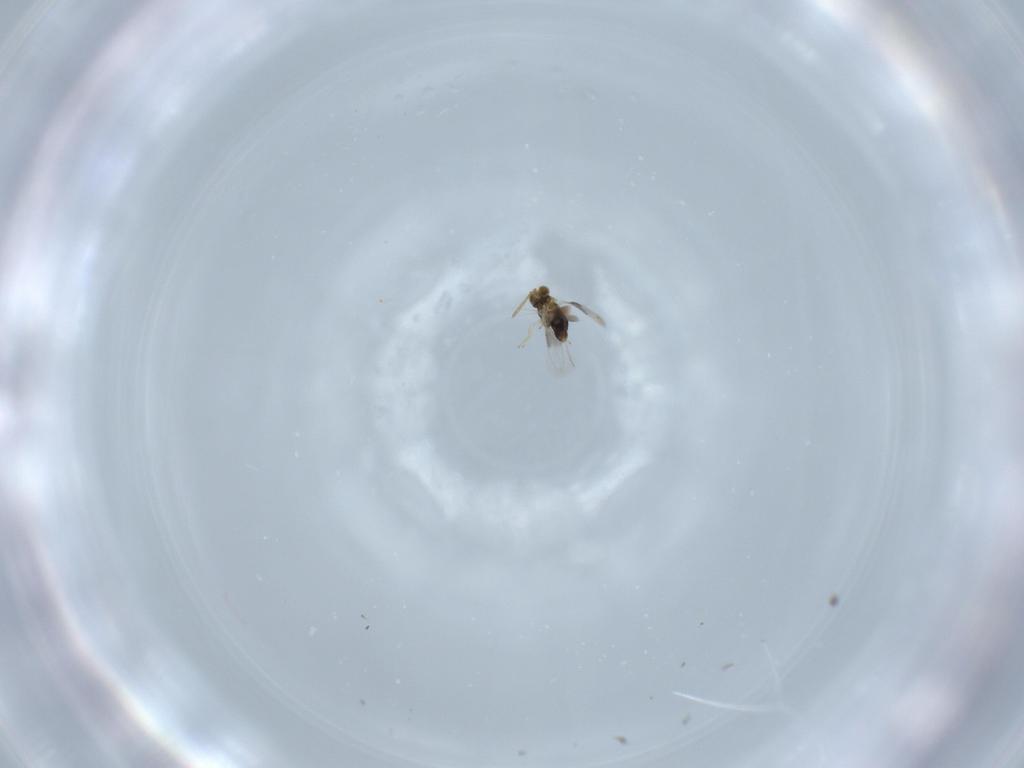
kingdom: Animalia
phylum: Arthropoda
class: Insecta
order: Hymenoptera
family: Aphelinidae
